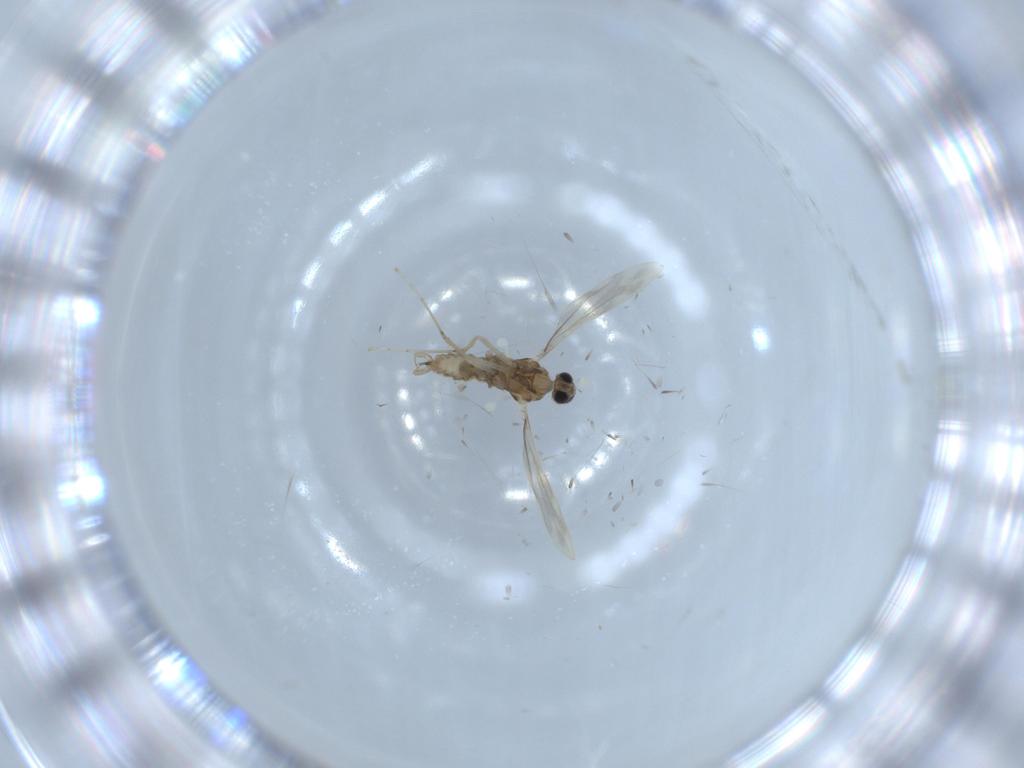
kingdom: Animalia
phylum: Arthropoda
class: Insecta
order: Diptera
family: Cecidomyiidae
